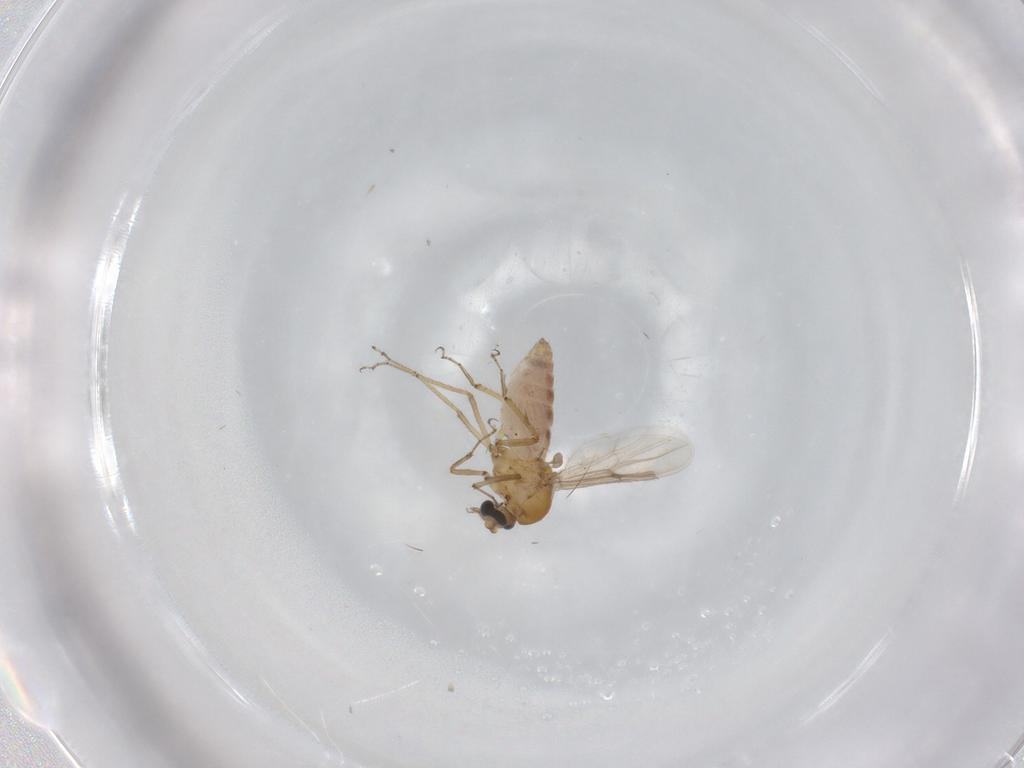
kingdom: Animalia
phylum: Arthropoda
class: Insecta
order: Diptera
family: Ceratopogonidae
